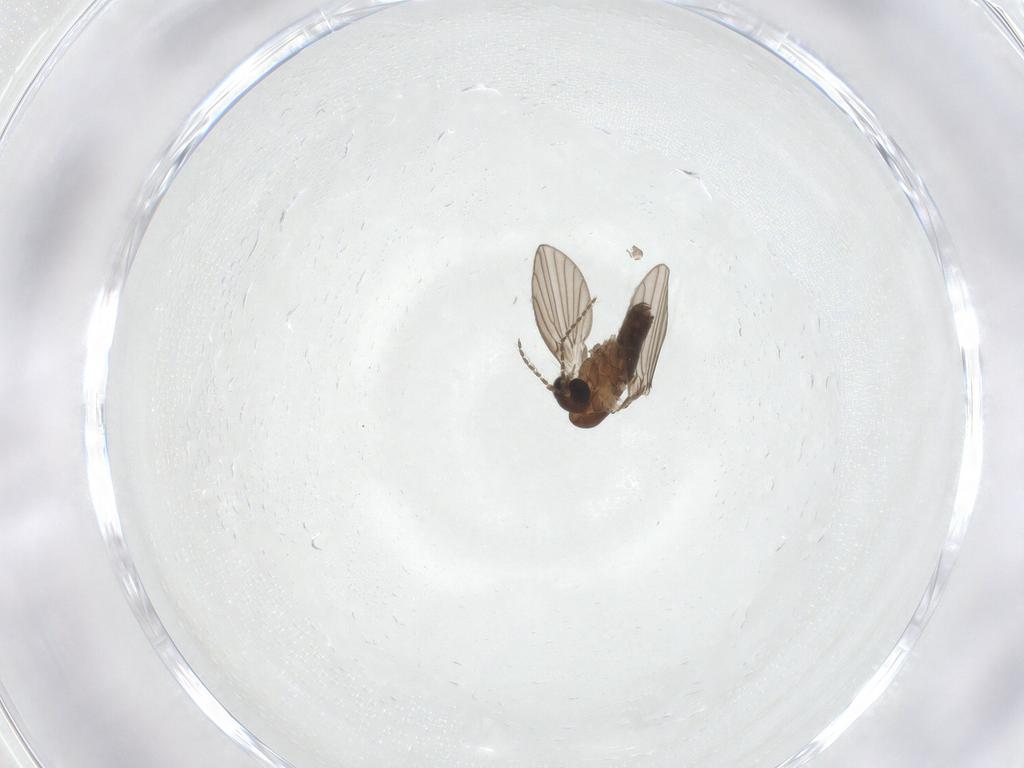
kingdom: Animalia
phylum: Arthropoda
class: Insecta
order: Diptera
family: Psychodidae
